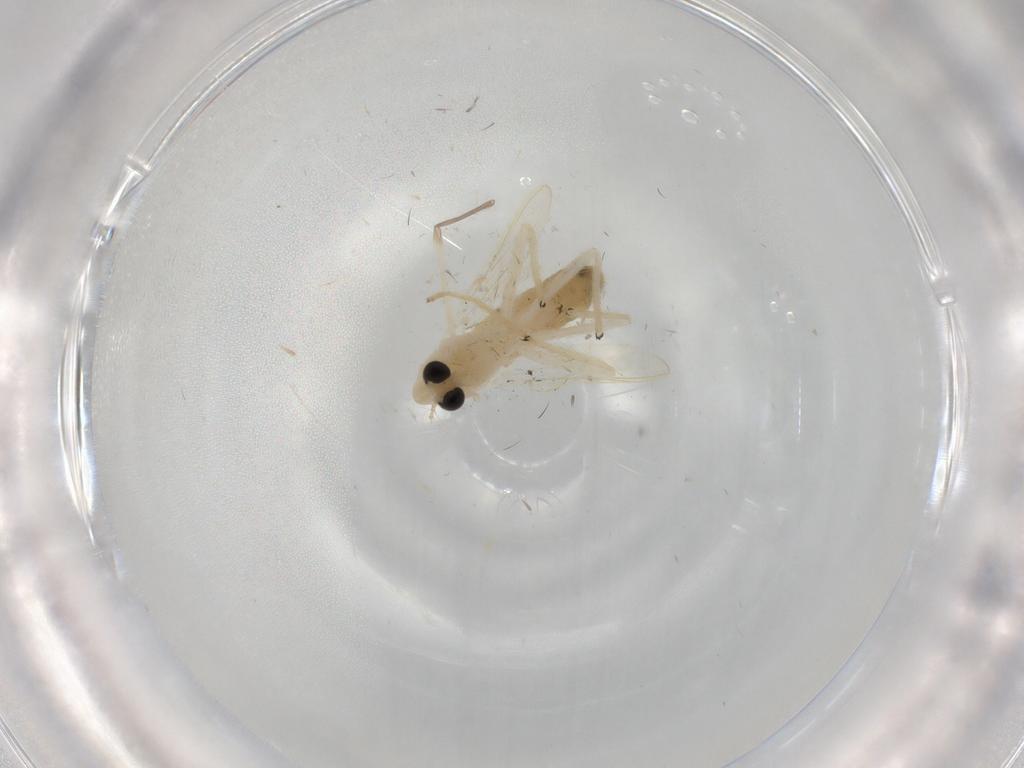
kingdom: Animalia
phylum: Arthropoda
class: Insecta
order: Diptera
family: Chironomidae
